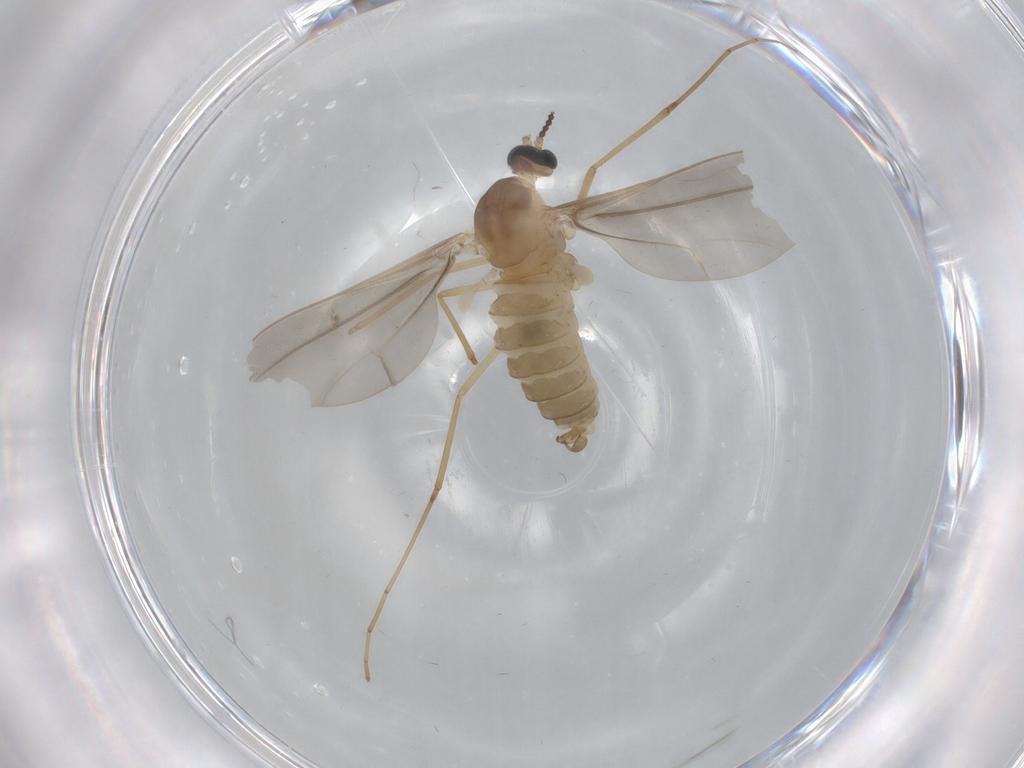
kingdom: Animalia
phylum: Arthropoda
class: Insecta
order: Diptera
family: Cecidomyiidae
